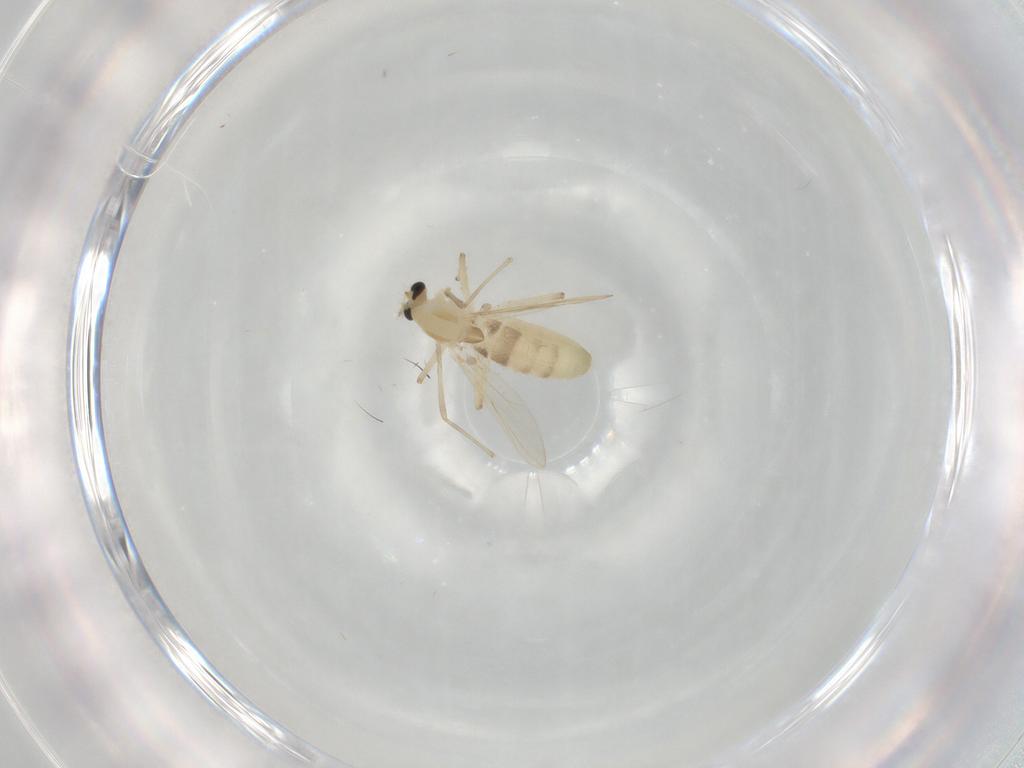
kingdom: Animalia
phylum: Arthropoda
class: Insecta
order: Diptera
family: Chironomidae
